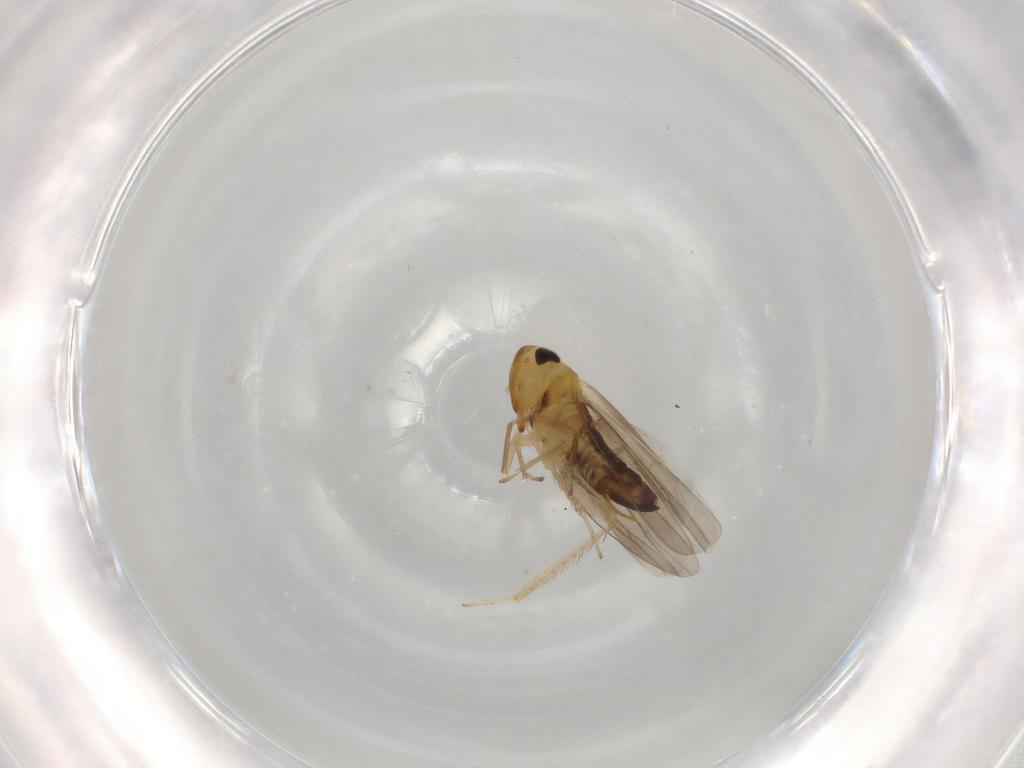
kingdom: Animalia
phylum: Arthropoda
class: Insecta
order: Hemiptera
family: Cicadellidae
